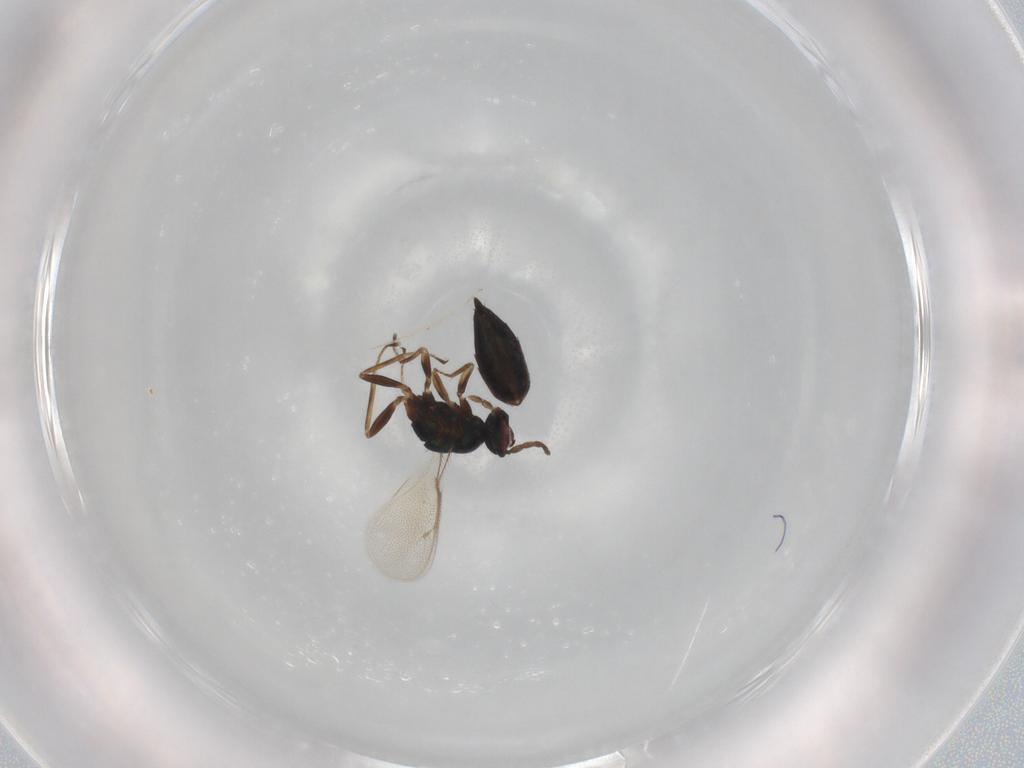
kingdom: Animalia
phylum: Arthropoda
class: Insecta
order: Hymenoptera
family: Eulophidae
